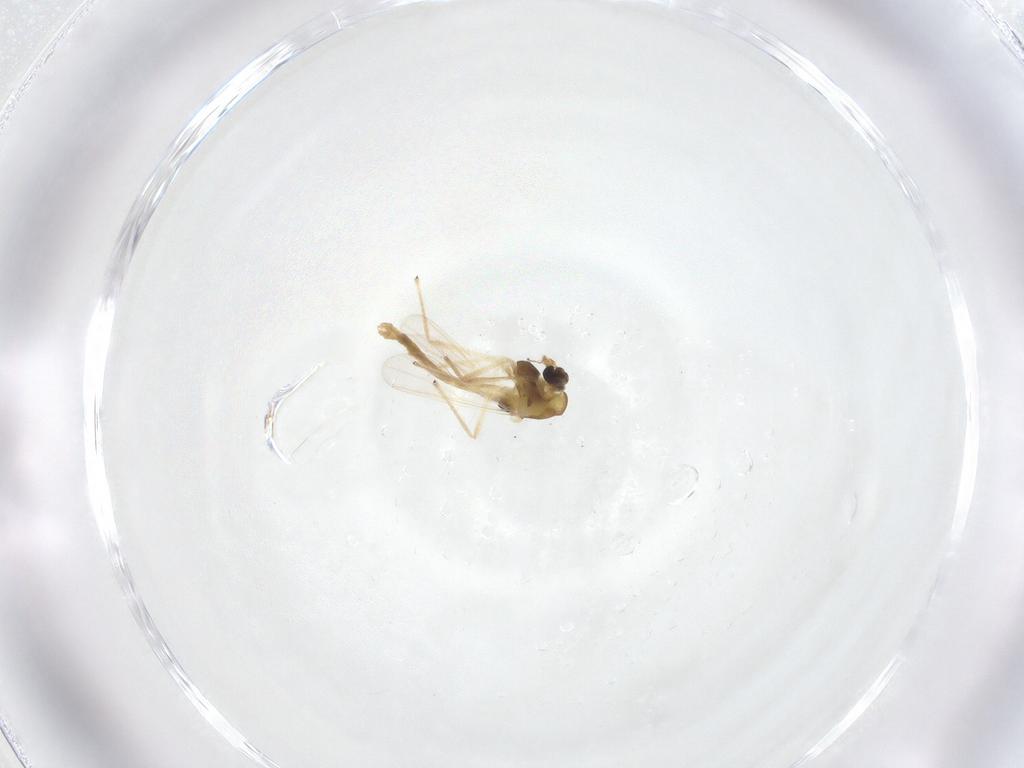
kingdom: Animalia
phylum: Arthropoda
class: Insecta
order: Diptera
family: Chironomidae
